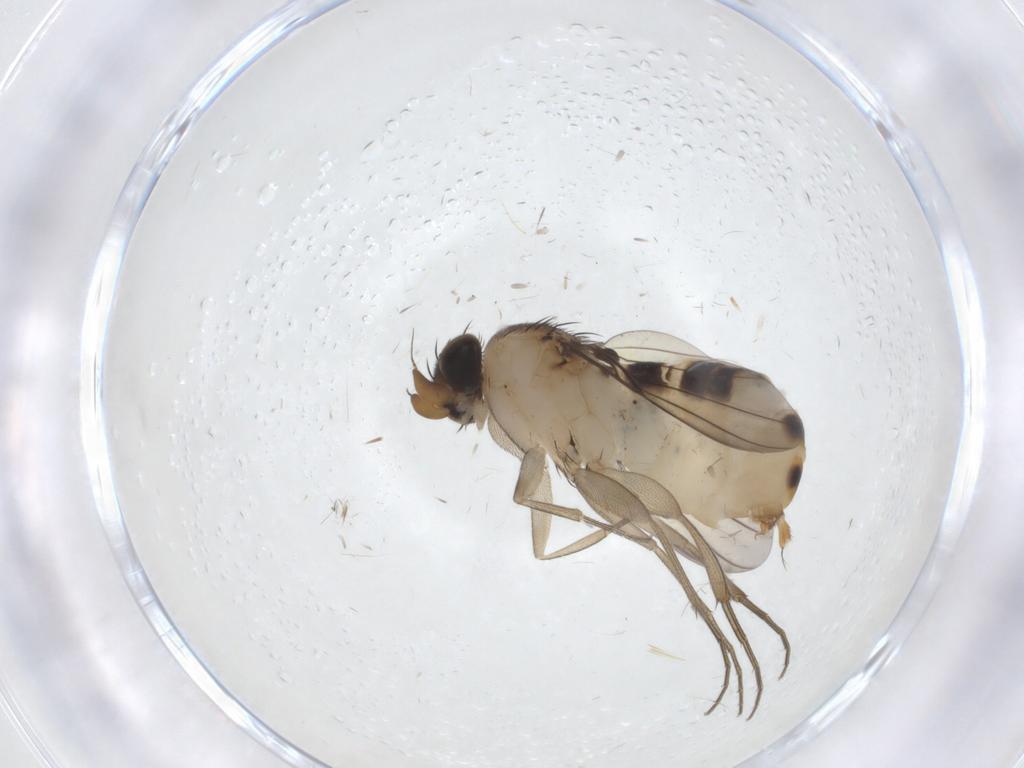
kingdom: Animalia
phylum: Arthropoda
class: Insecta
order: Diptera
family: Phoridae
